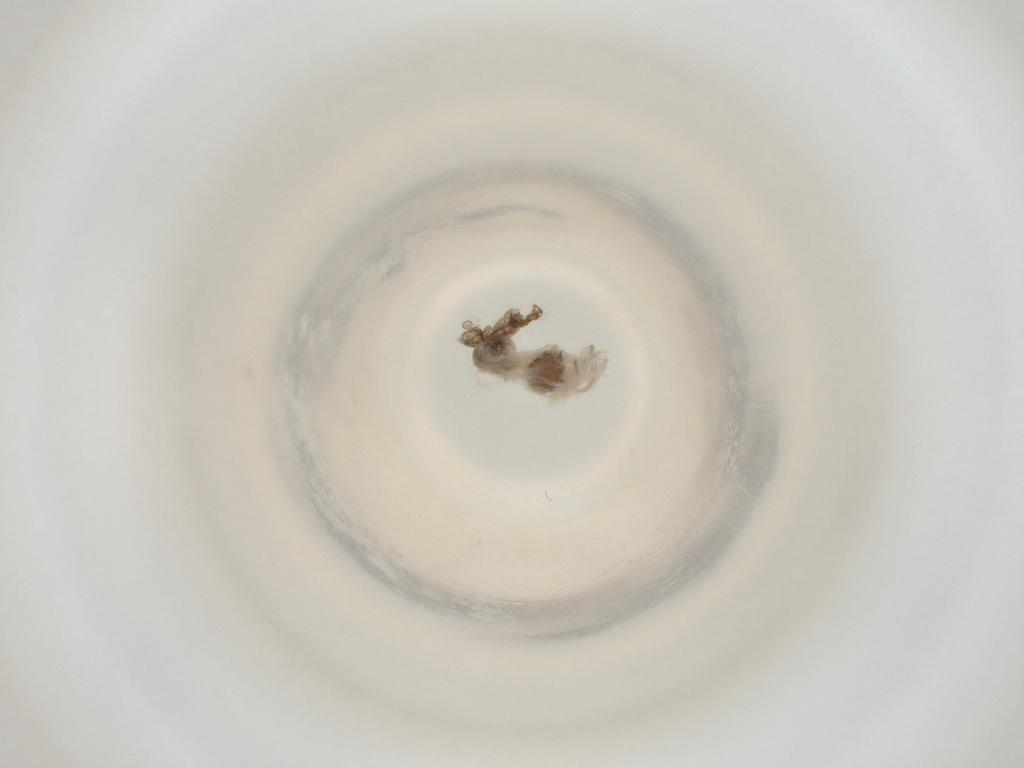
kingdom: Animalia
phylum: Arthropoda
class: Insecta
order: Diptera
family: Cecidomyiidae
